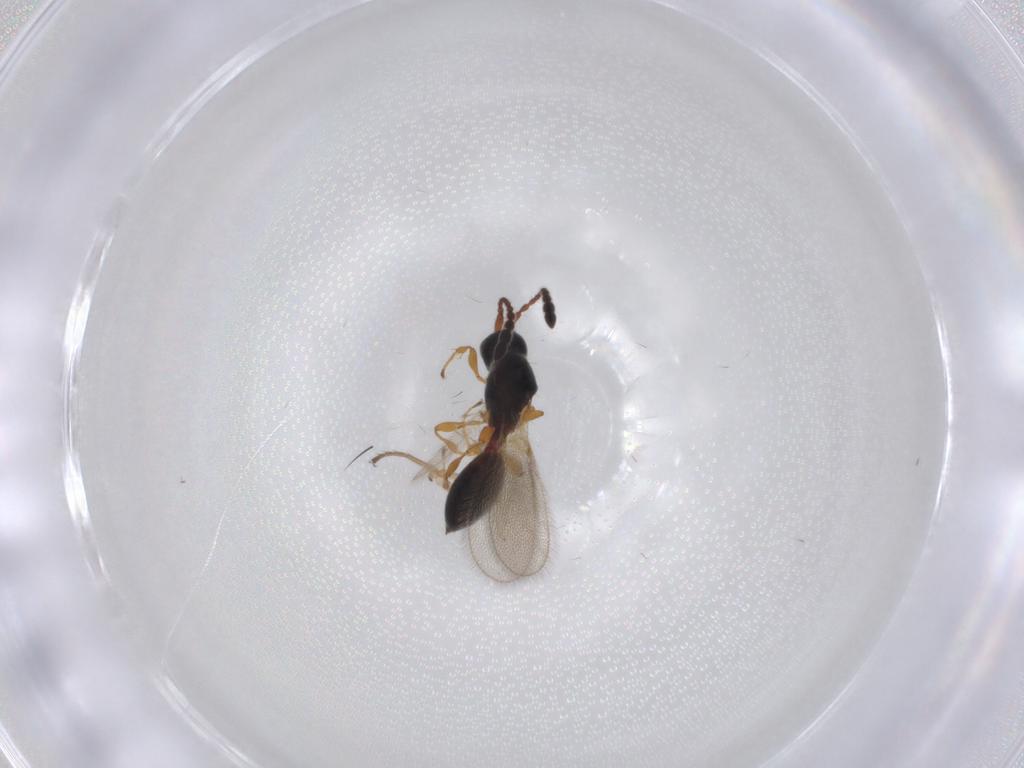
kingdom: Animalia
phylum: Arthropoda
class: Insecta
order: Hymenoptera
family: Diapriidae
